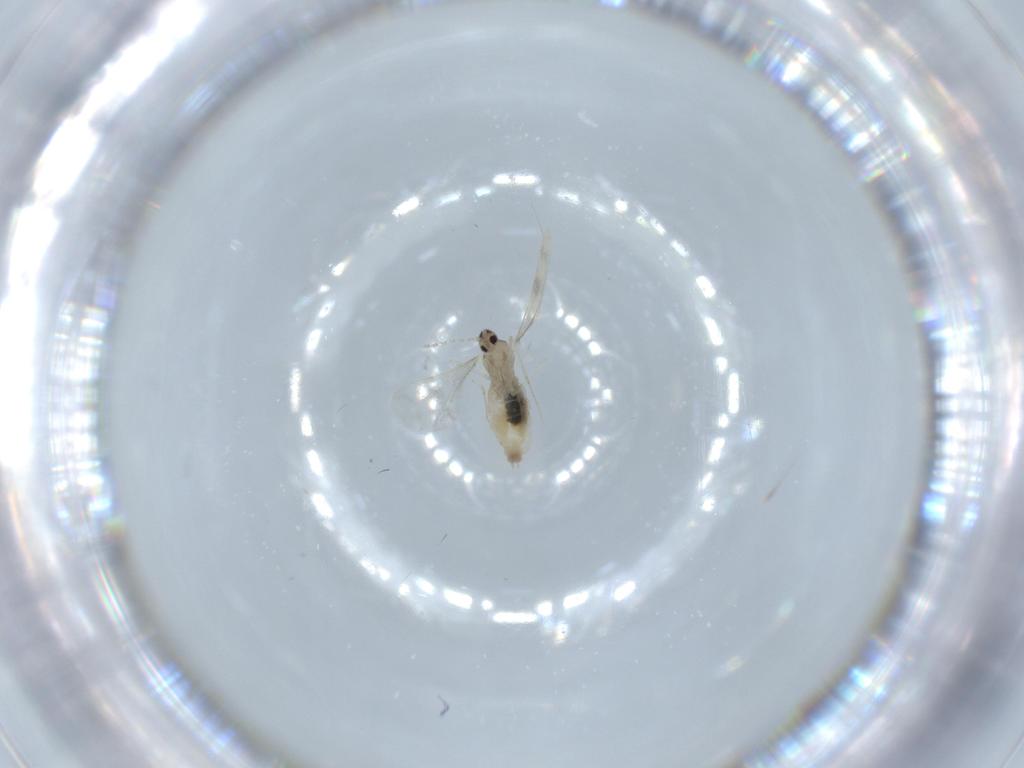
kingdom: Animalia
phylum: Arthropoda
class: Insecta
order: Diptera
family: Cecidomyiidae
